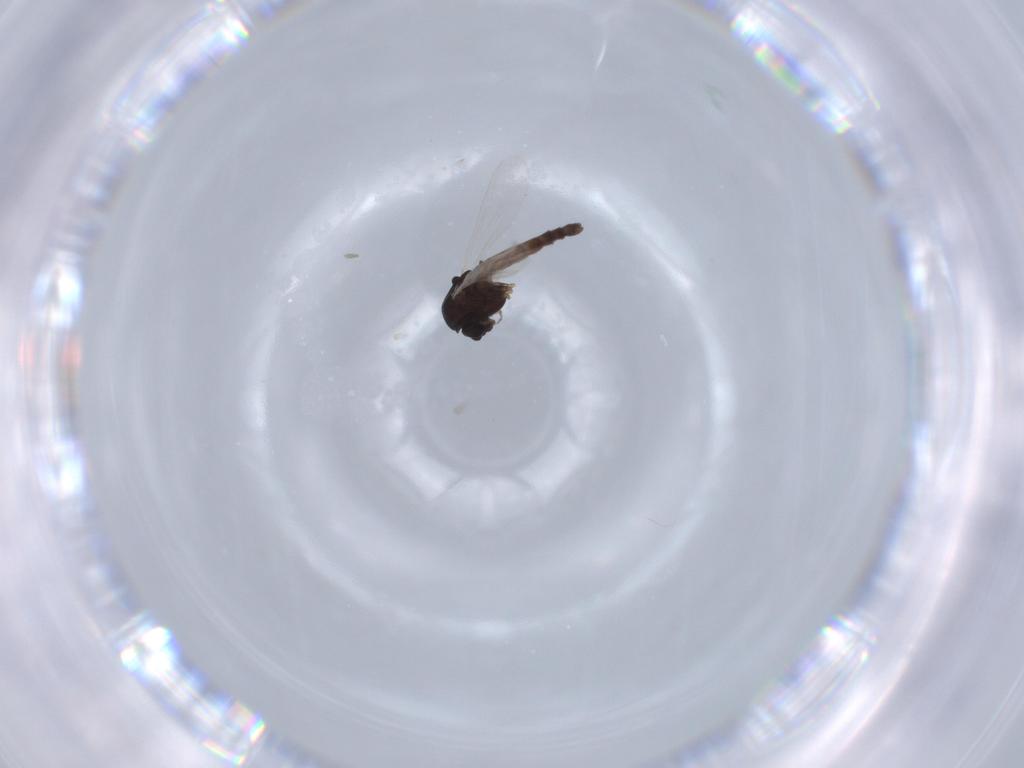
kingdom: Animalia
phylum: Arthropoda
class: Insecta
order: Diptera
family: Chironomidae
